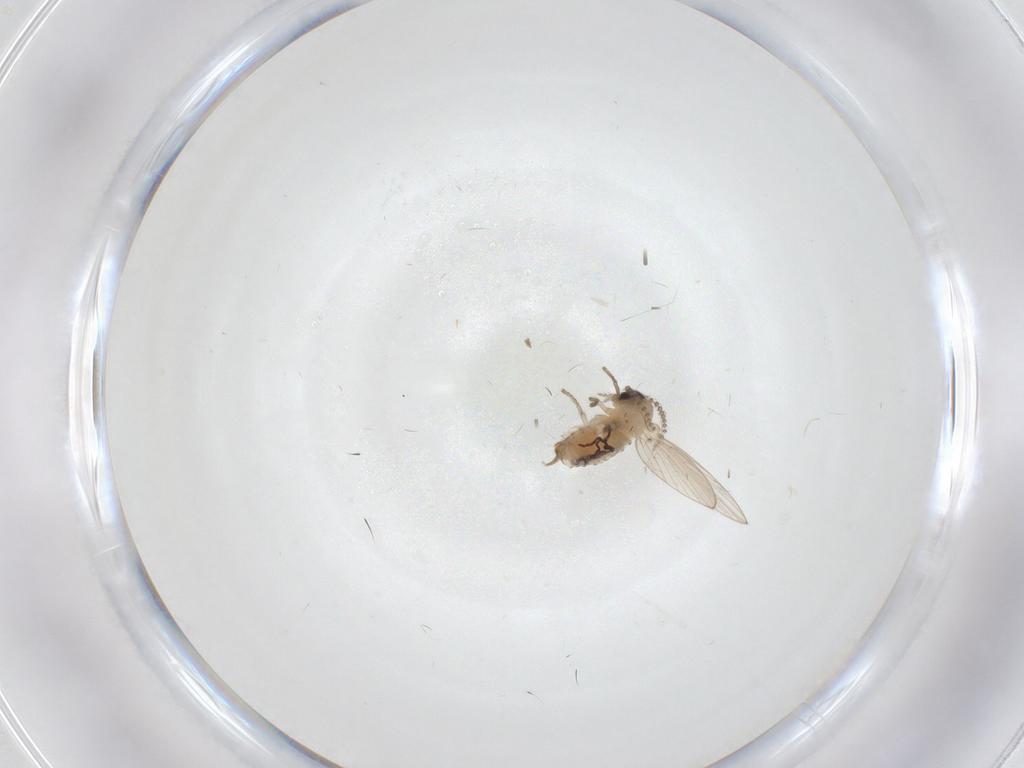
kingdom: Animalia
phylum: Arthropoda
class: Insecta
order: Diptera
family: Psychodidae
